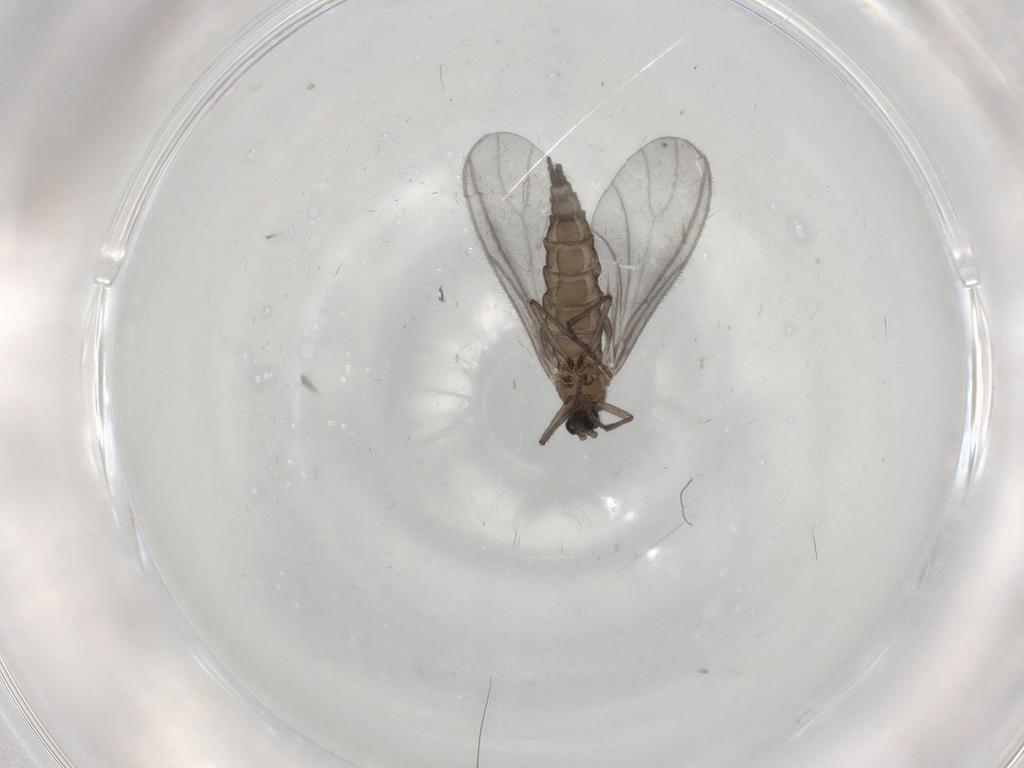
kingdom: Animalia
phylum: Arthropoda
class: Insecta
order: Diptera
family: Sciaridae
